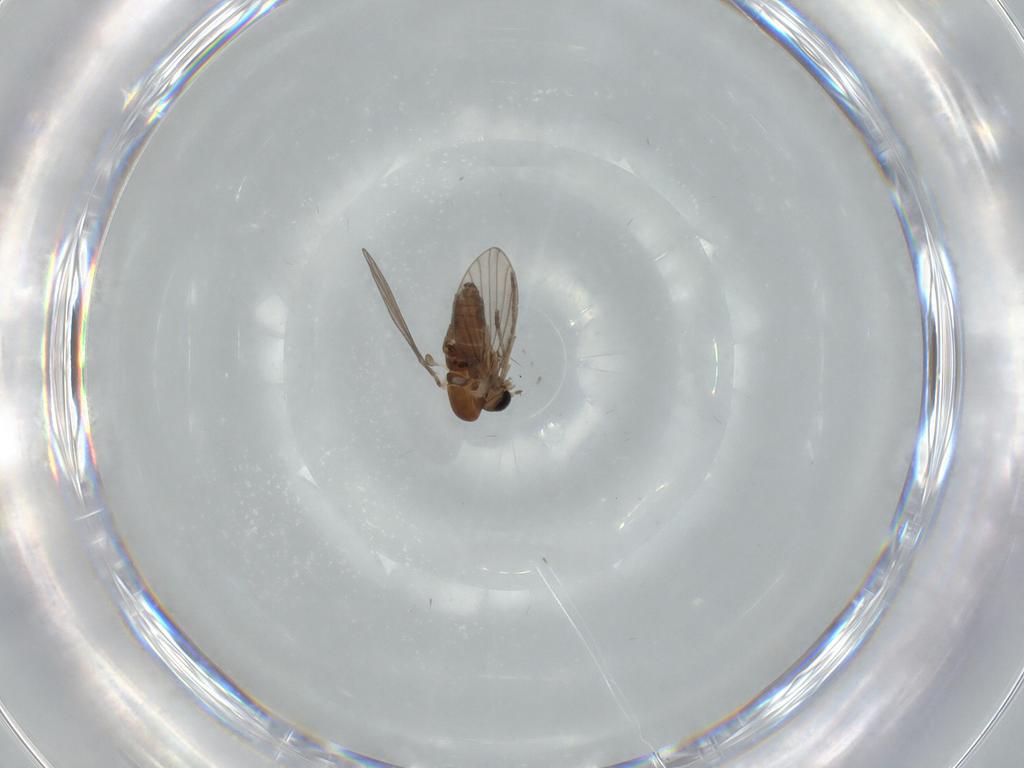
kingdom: Animalia
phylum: Arthropoda
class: Insecta
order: Diptera
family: Psychodidae
